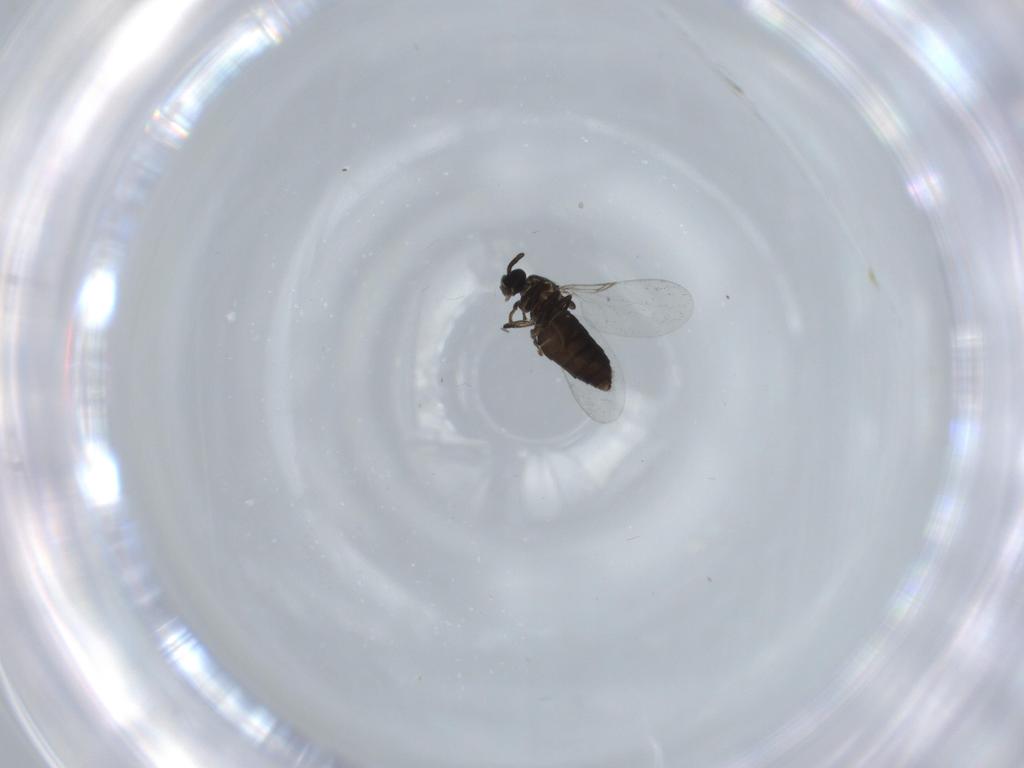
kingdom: Animalia
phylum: Arthropoda
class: Insecta
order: Diptera
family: Scatopsidae
